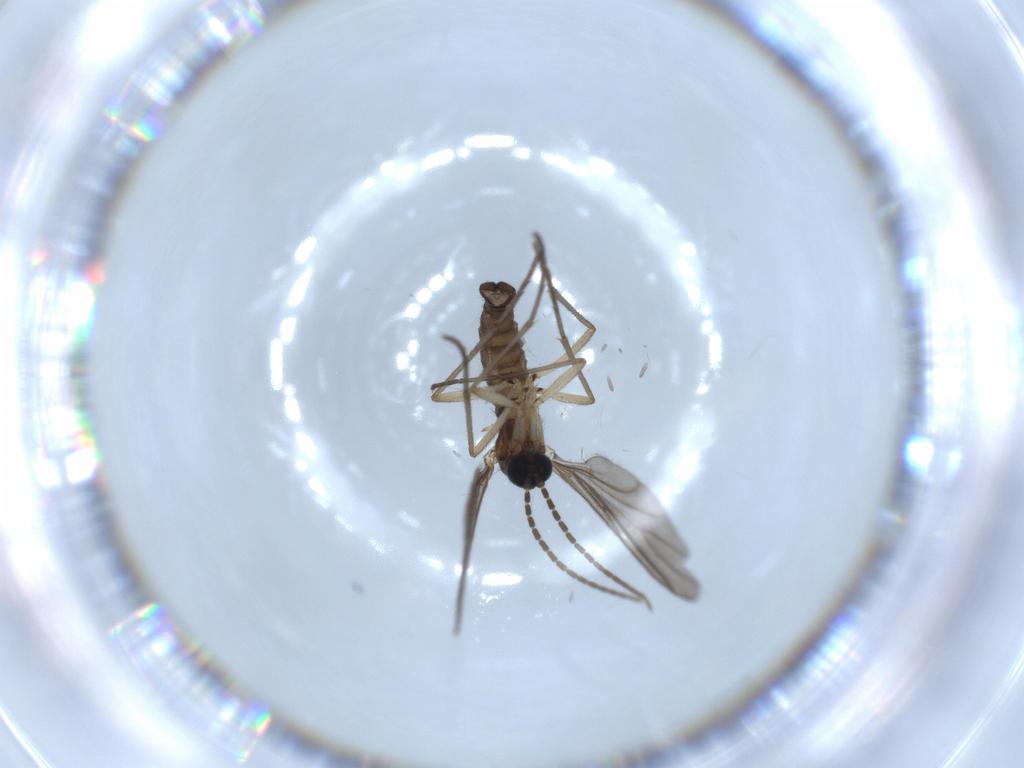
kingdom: Animalia
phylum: Arthropoda
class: Insecta
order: Diptera
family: Sciaridae
